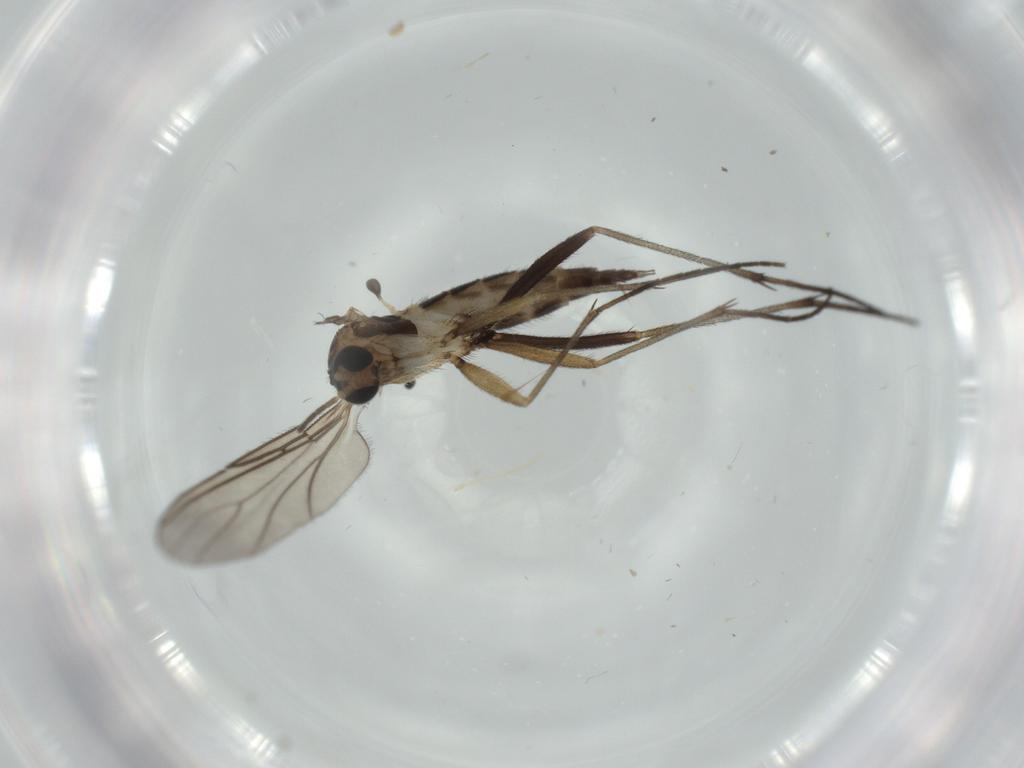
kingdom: Animalia
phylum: Arthropoda
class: Insecta
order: Diptera
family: Sciaridae
